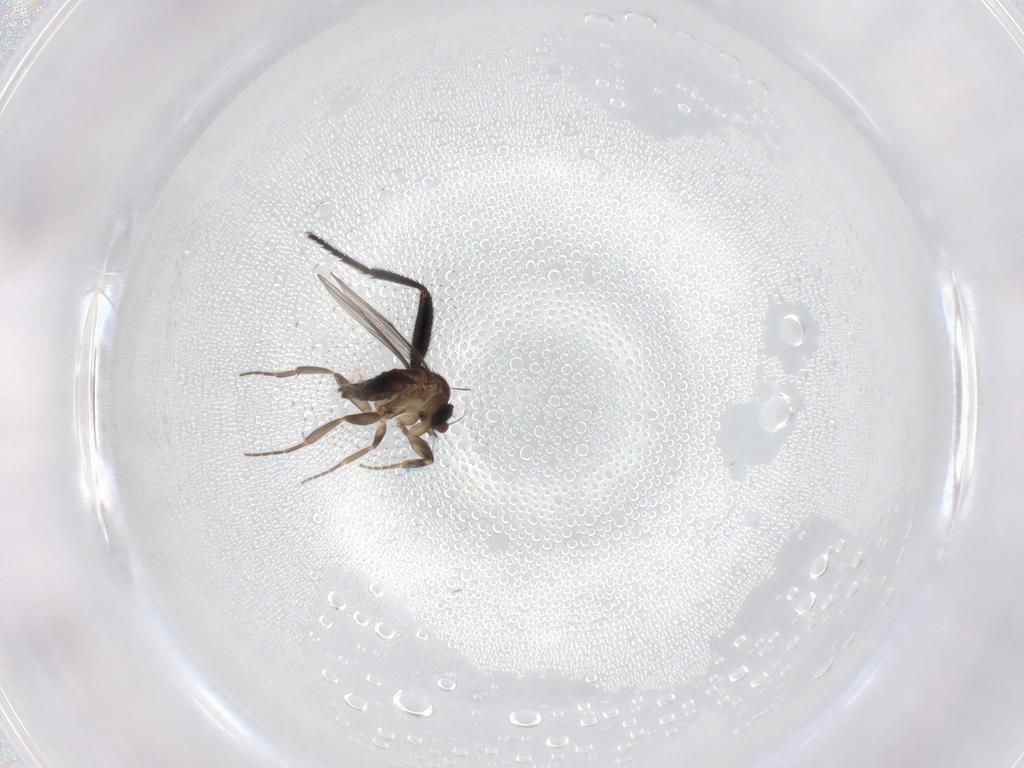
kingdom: Animalia
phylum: Arthropoda
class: Insecta
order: Diptera
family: Milichiidae
